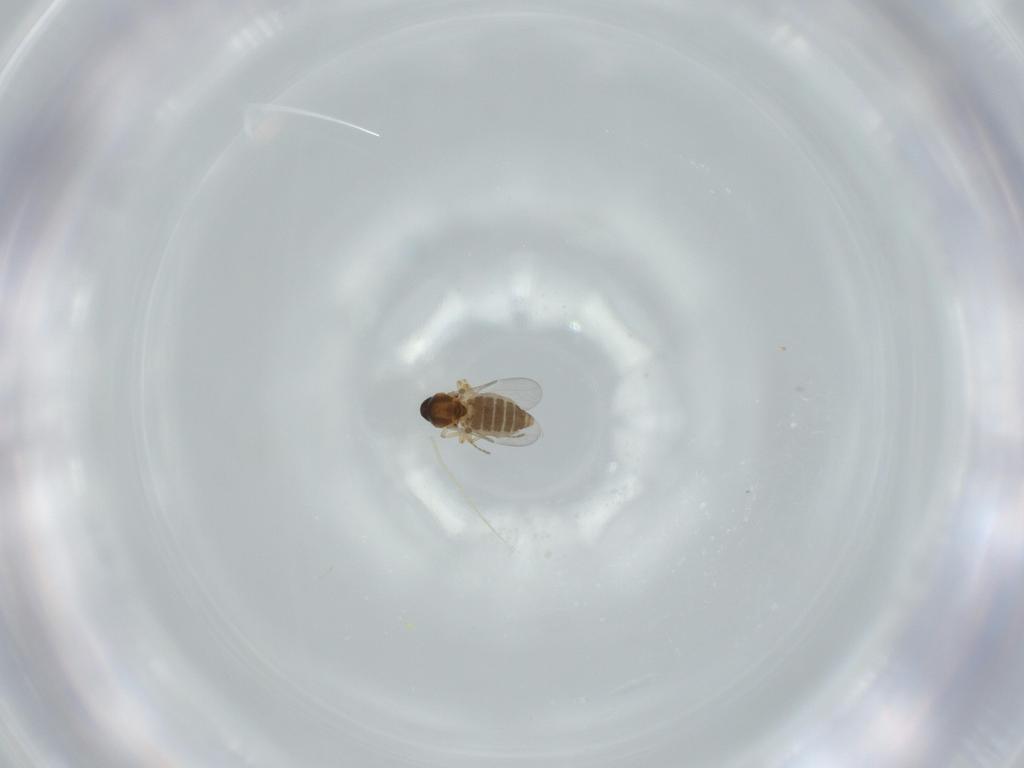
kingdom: Animalia
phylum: Arthropoda
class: Insecta
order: Diptera
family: Ceratopogonidae
